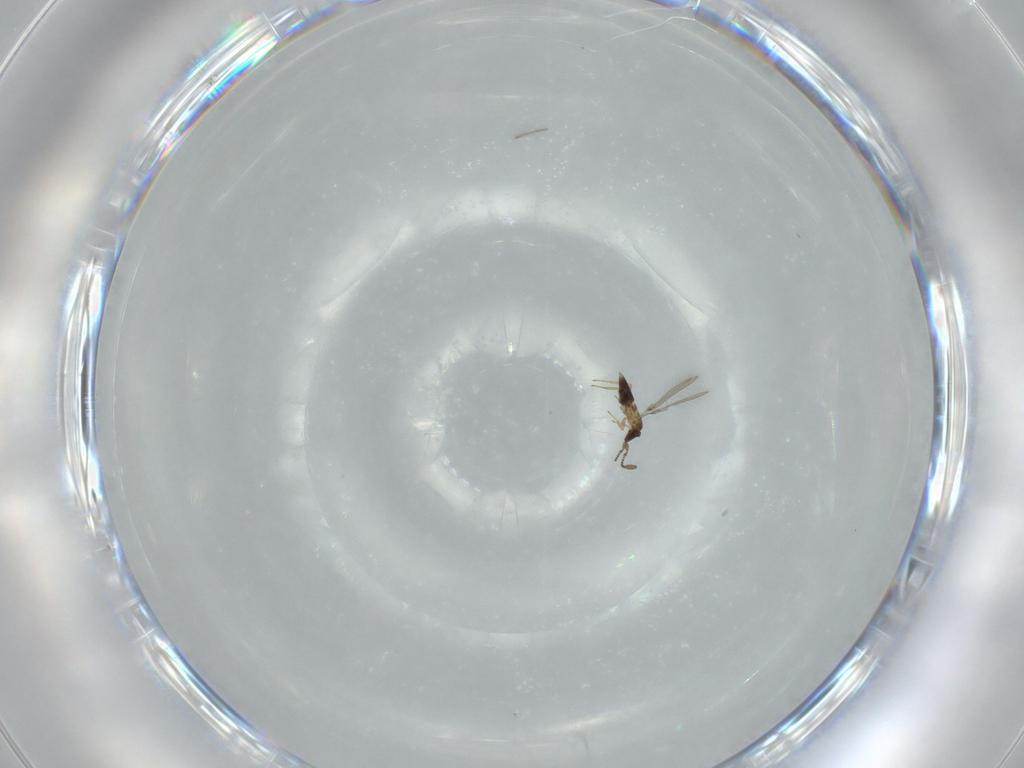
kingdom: Animalia
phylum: Arthropoda
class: Insecta
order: Hymenoptera
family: Mymaridae
